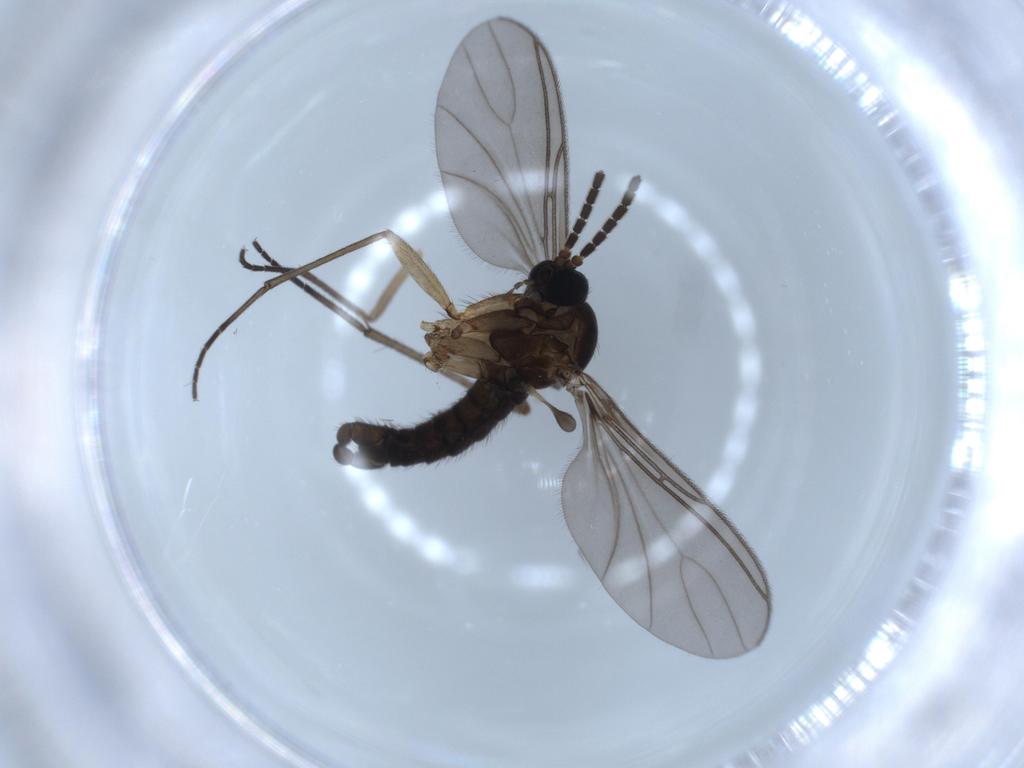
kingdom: Animalia
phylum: Arthropoda
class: Insecta
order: Diptera
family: Sciaridae
